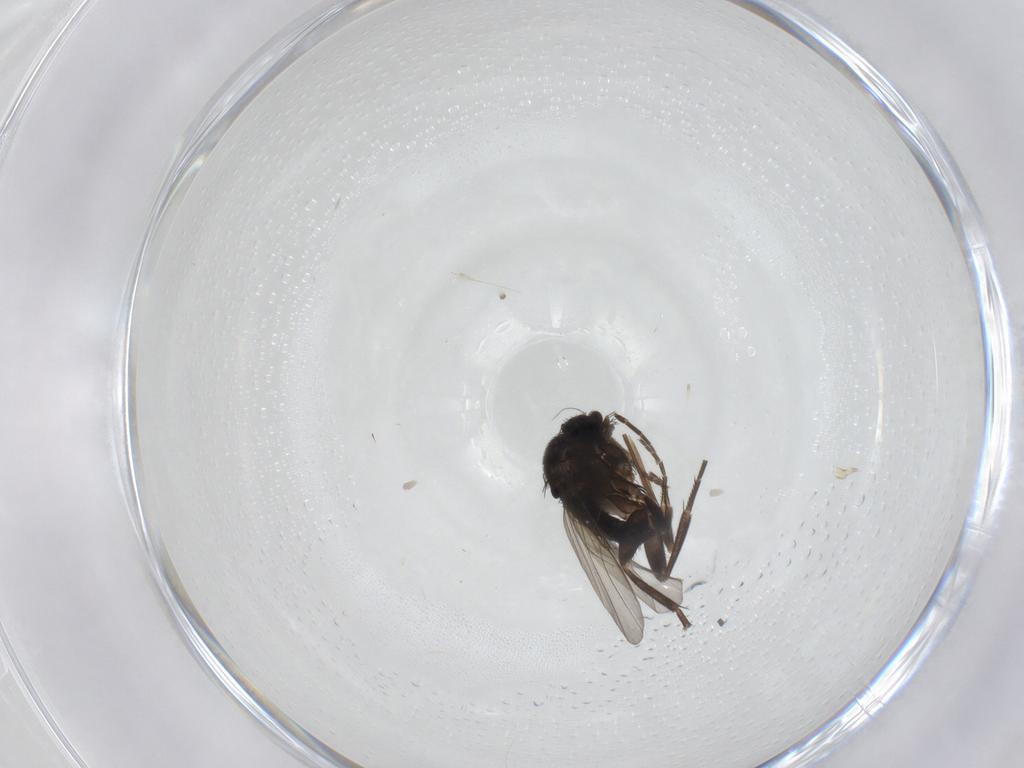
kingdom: Animalia
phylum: Arthropoda
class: Insecta
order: Diptera
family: Phoridae
